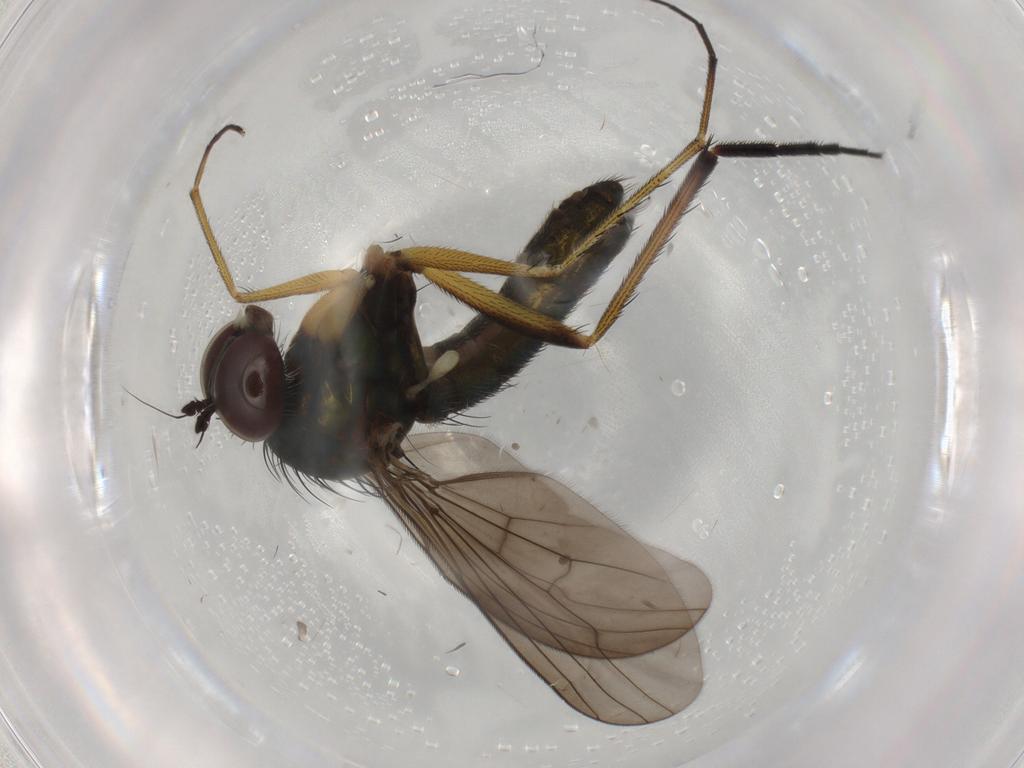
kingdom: Animalia
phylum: Arthropoda
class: Insecta
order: Diptera
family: Dolichopodidae
